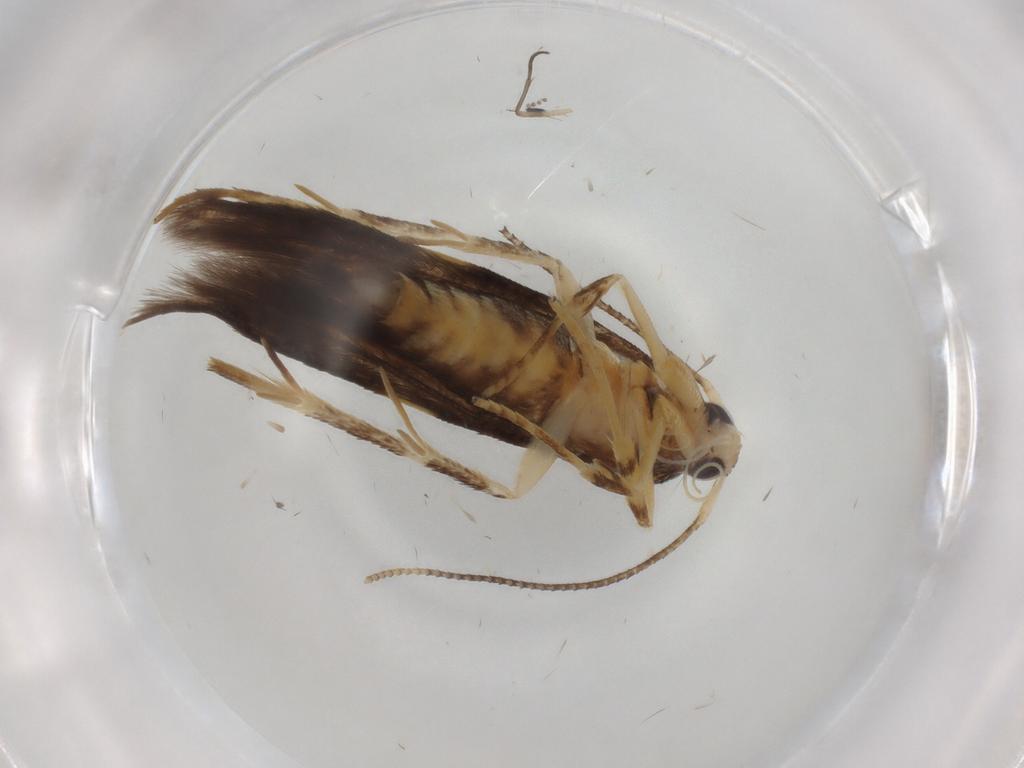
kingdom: Animalia
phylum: Arthropoda
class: Insecta
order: Lepidoptera
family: Cosmopterigidae
